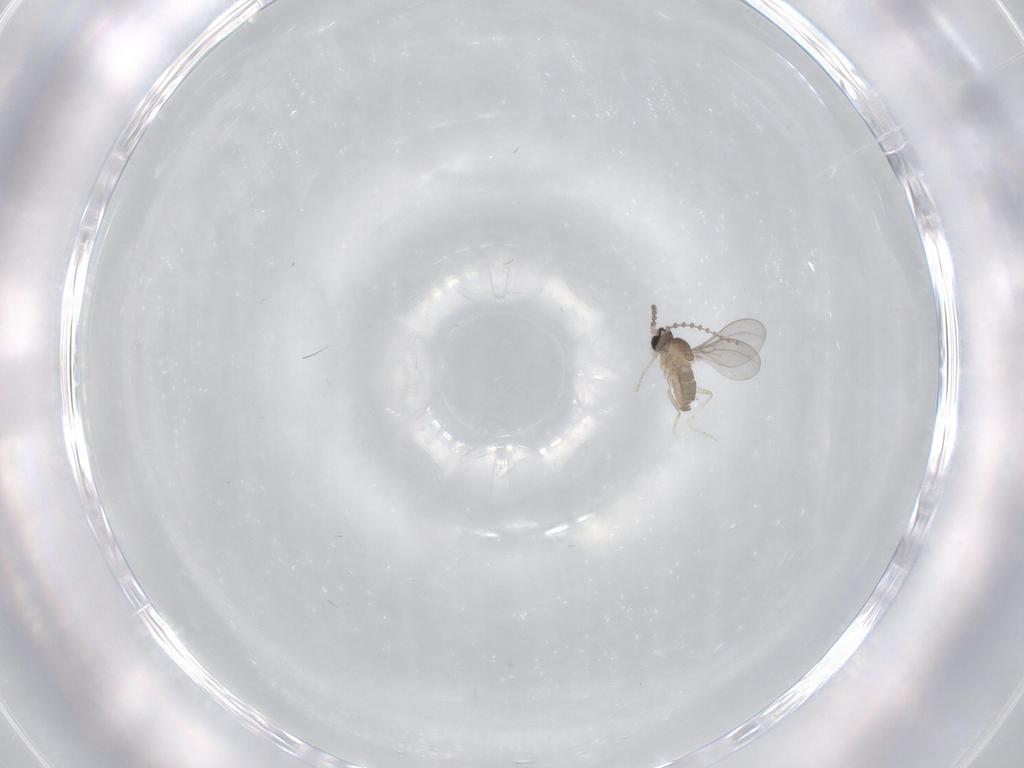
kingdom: Animalia
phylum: Arthropoda
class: Insecta
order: Diptera
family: Cecidomyiidae
